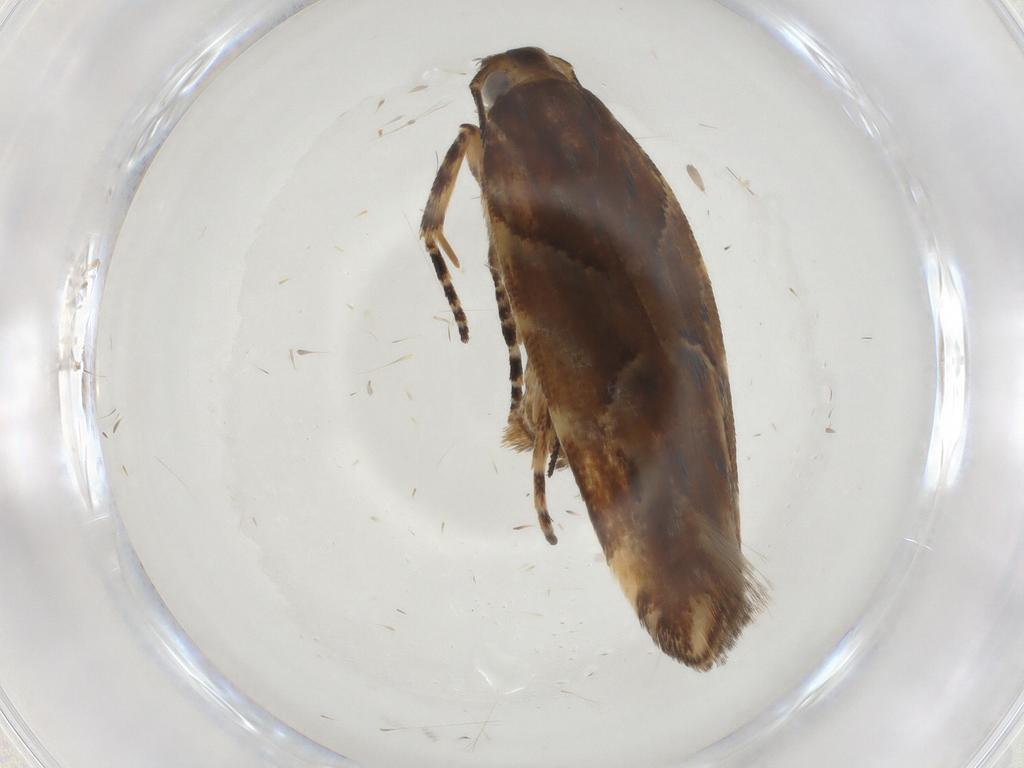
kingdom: Animalia
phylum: Arthropoda
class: Insecta
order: Lepidoptera
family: Gelechiidae
